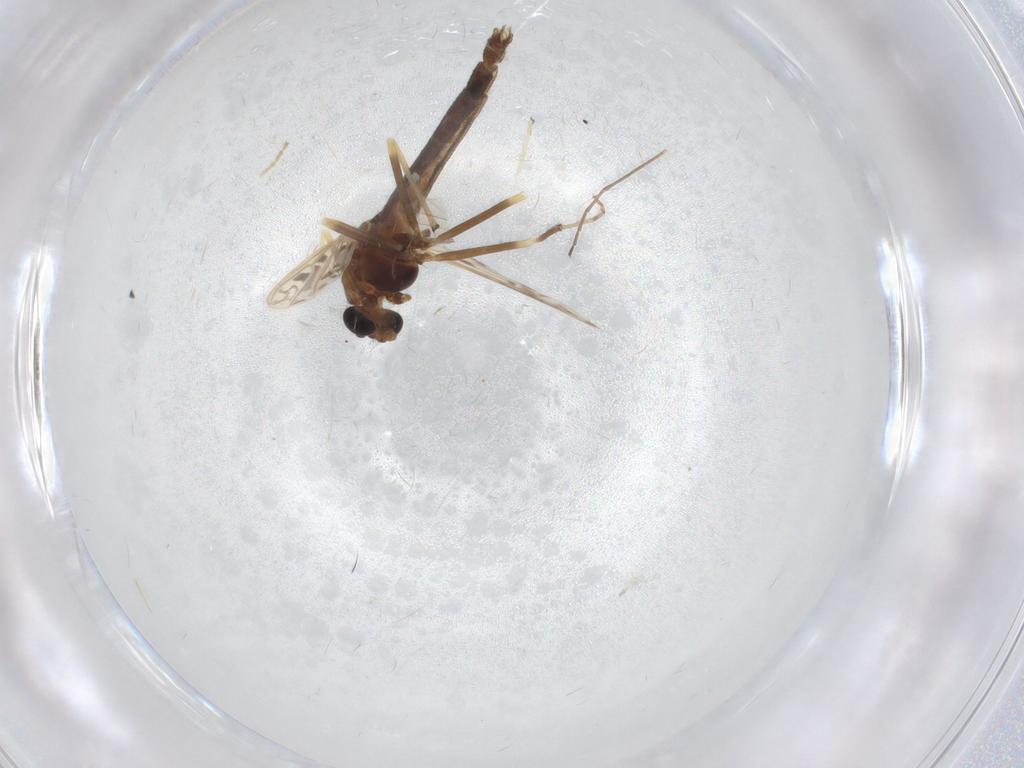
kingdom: Animalia
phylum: Arthropoda
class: Insecta
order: Diptera
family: Chironomidae
